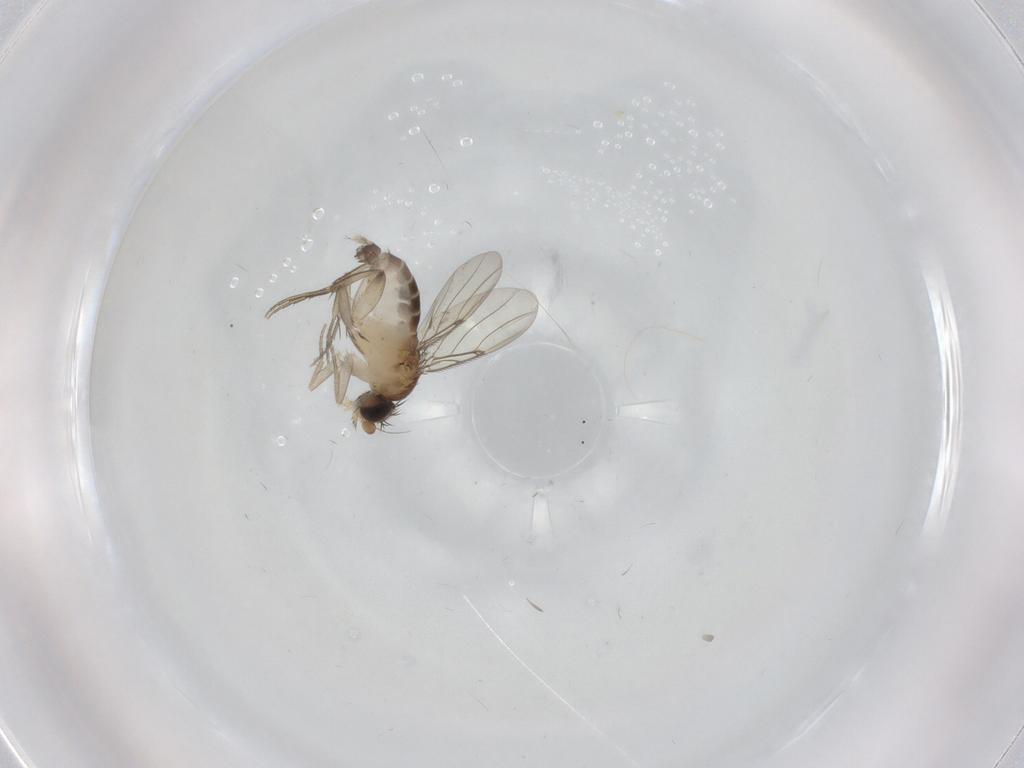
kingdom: Animalia
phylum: Arthropoda
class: Insecta
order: Diptera
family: Phoridae
